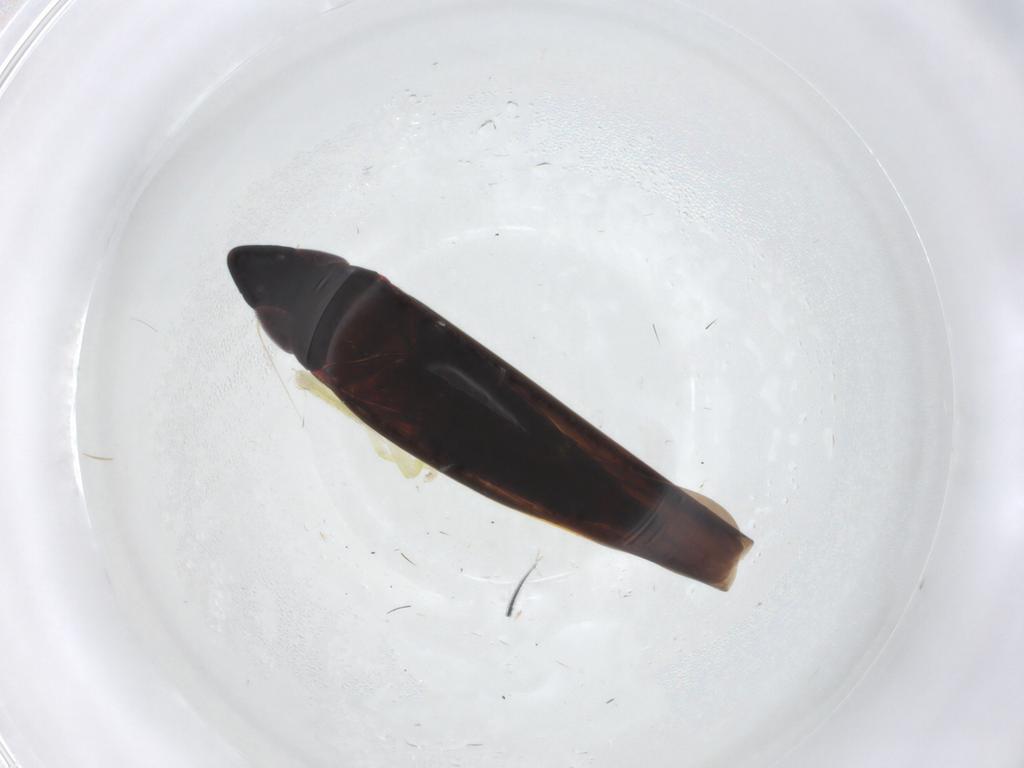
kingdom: Animalia
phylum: Arthropoda
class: Insecta
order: Hemiptera
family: Cicadellidae
